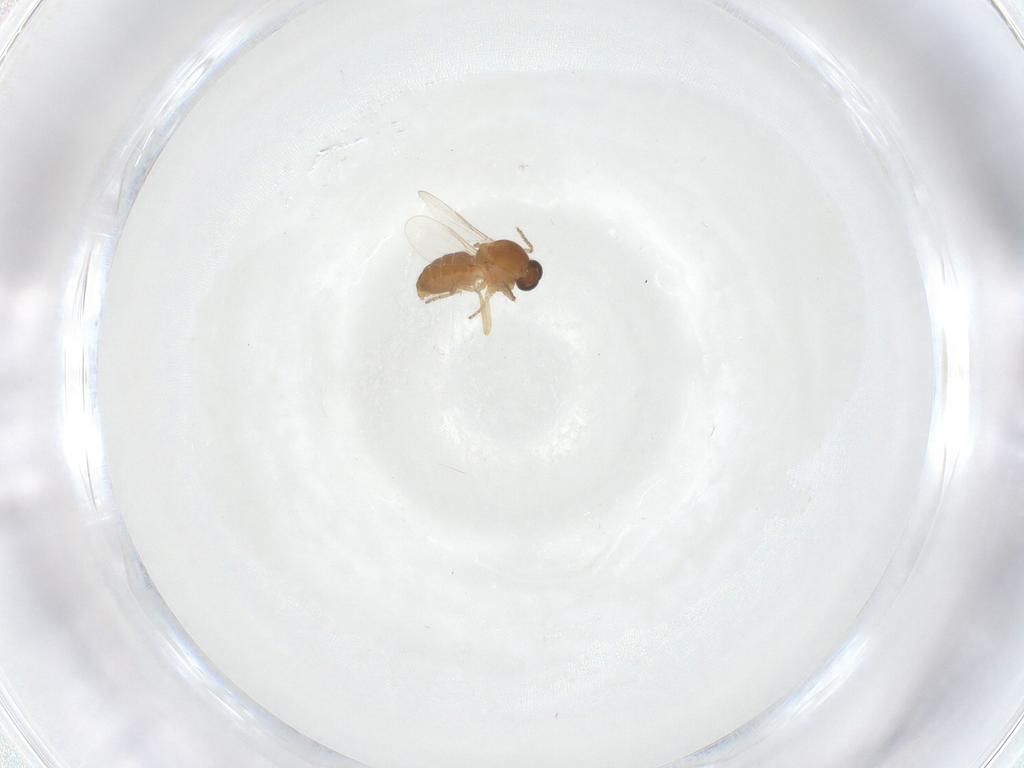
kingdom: Animalia
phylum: Arthropoda
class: Insecta
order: Diptera
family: Ceratopogonidae
